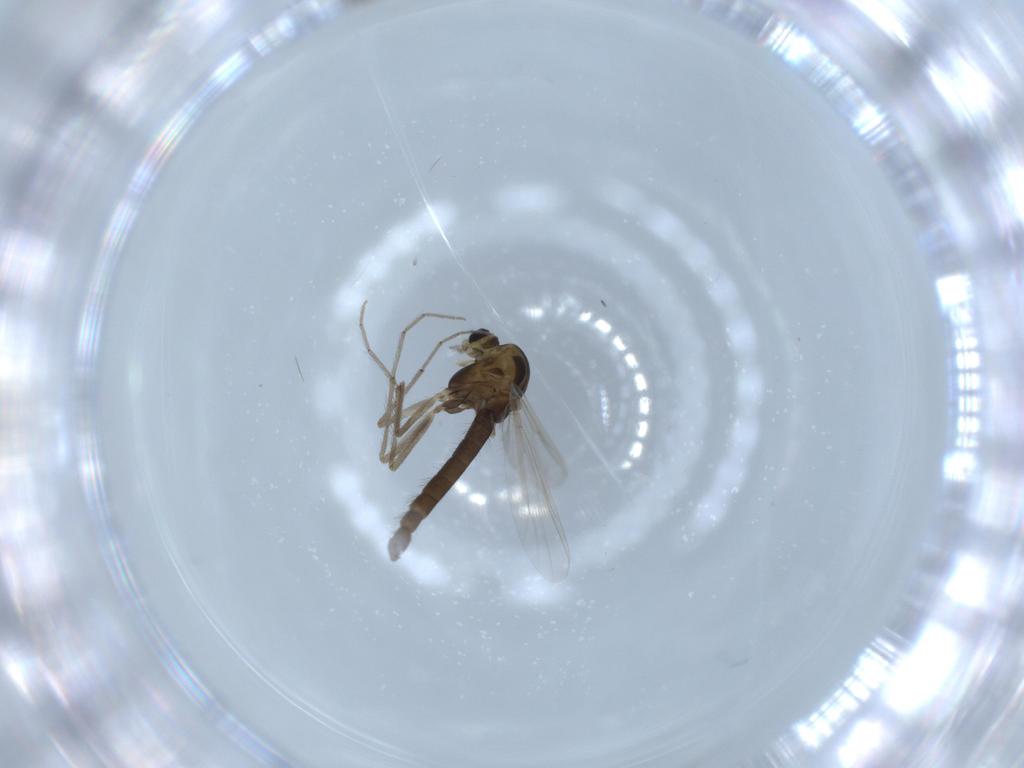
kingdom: Animalia
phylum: Arthropoda
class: Insecta
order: Diptera
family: Chironomidae
